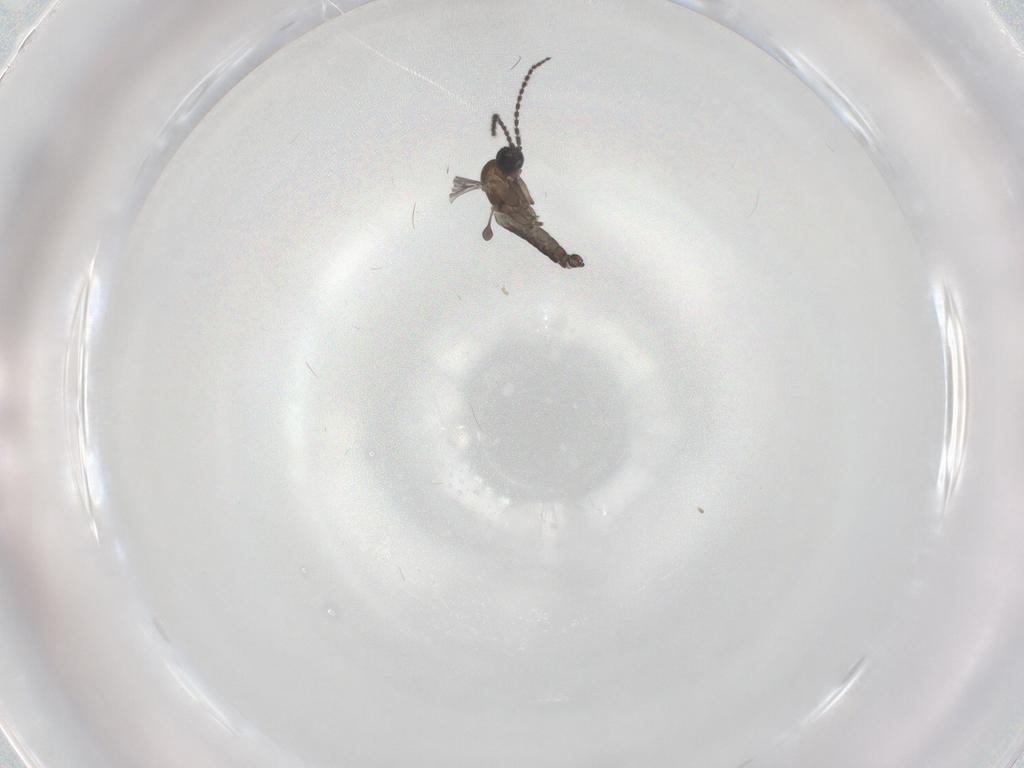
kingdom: Animalia
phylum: Arthropoda
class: Insecta
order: Diptera
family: Sciaridae
